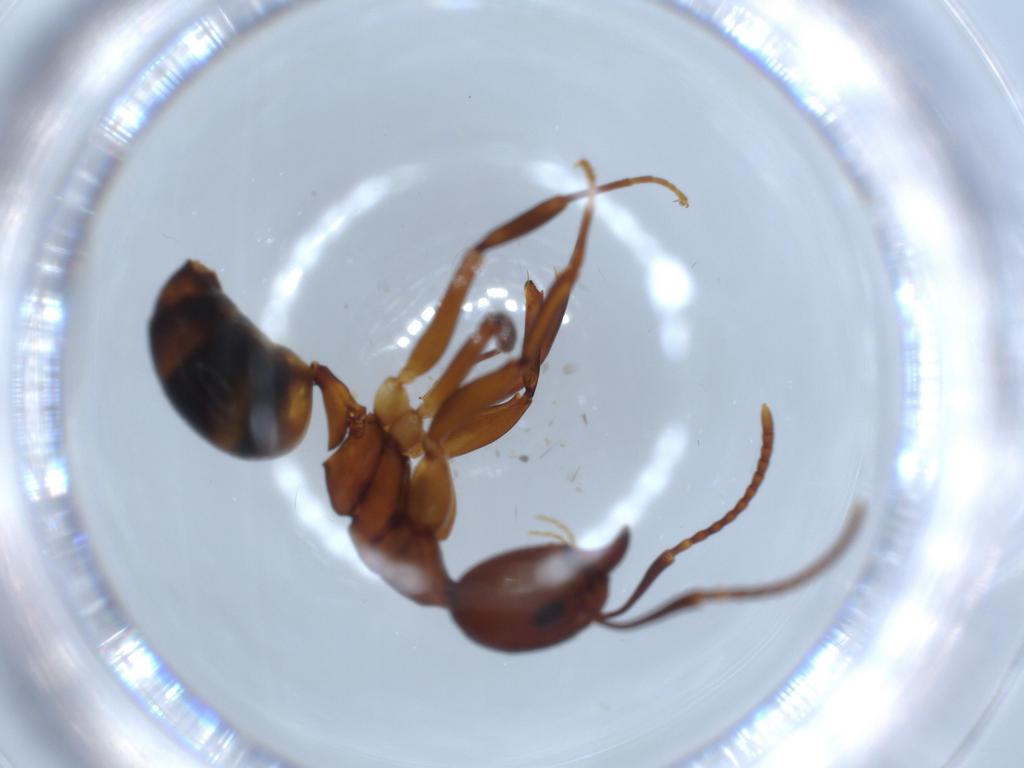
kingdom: Animalia
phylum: Arthropoda
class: Insecta
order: Hymenoptera
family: Formicidae
